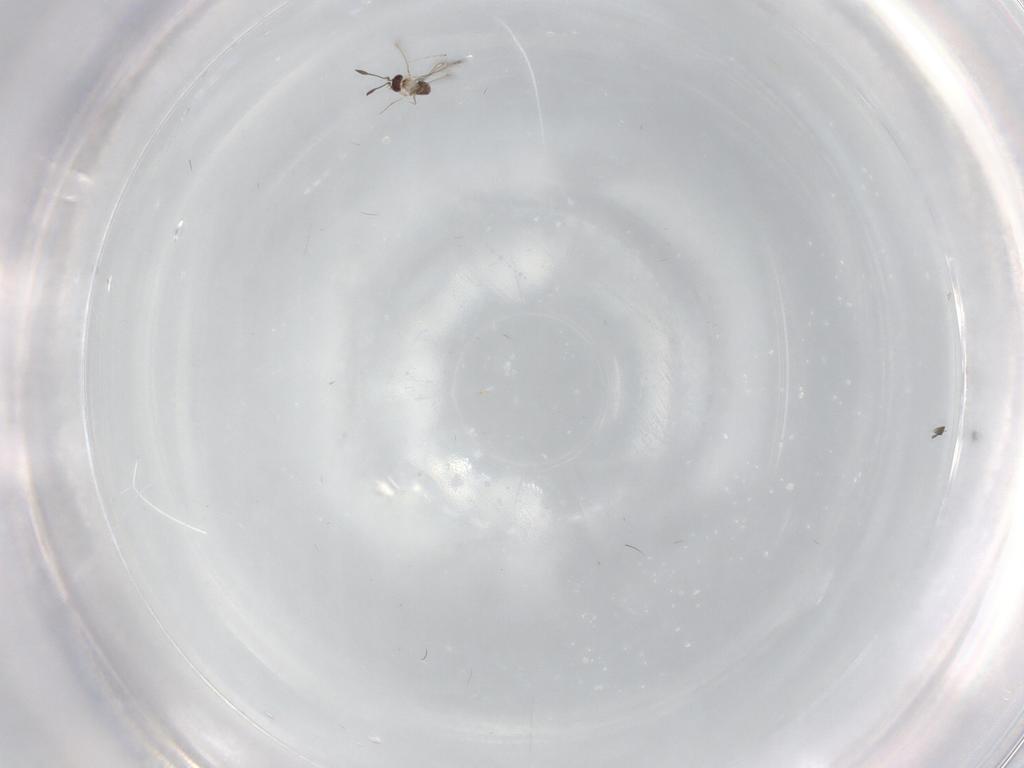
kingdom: Animalia
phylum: Arthropoda
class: Insecta
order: Hymenoptera
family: Mymaridae
